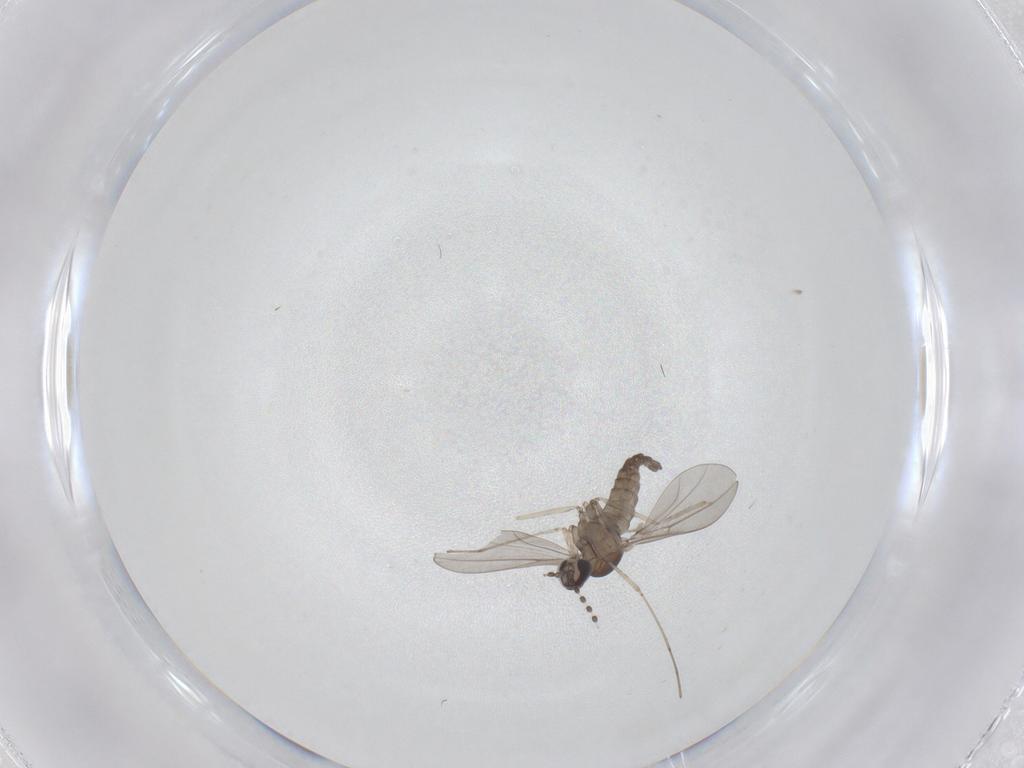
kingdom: Animalia
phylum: Arthropoda
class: Insecta
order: Diptera
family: Cecidomyiidae
